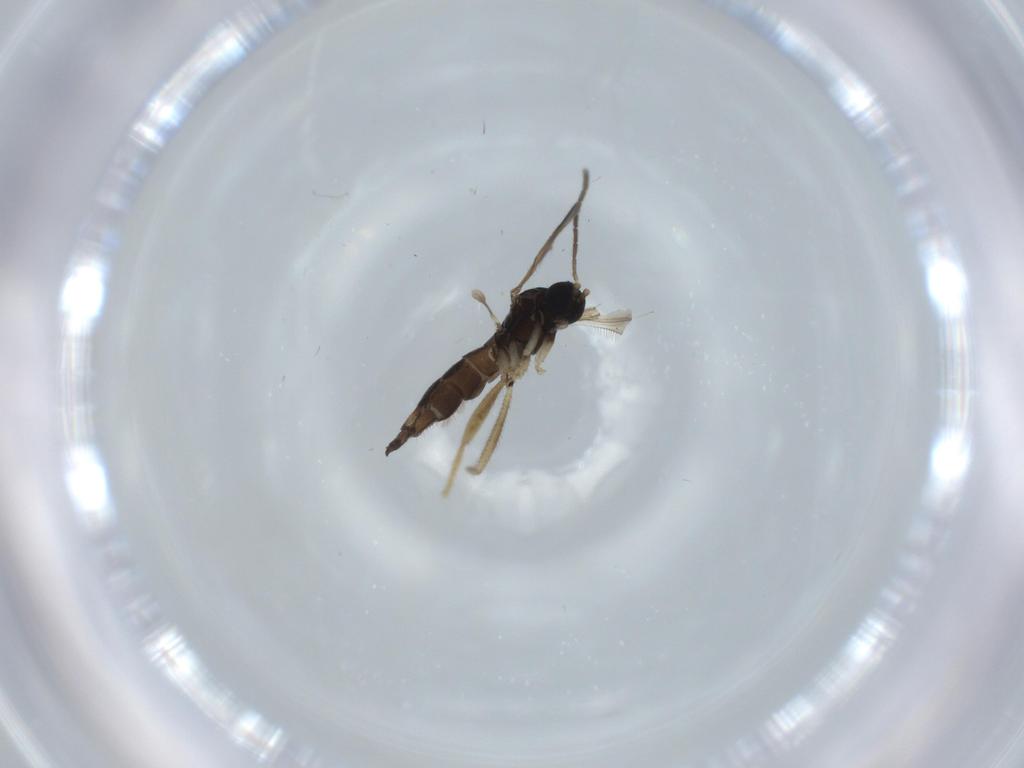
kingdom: Animalia
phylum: Arthropoda
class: Insecta
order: Diptera
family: Sciaridae
